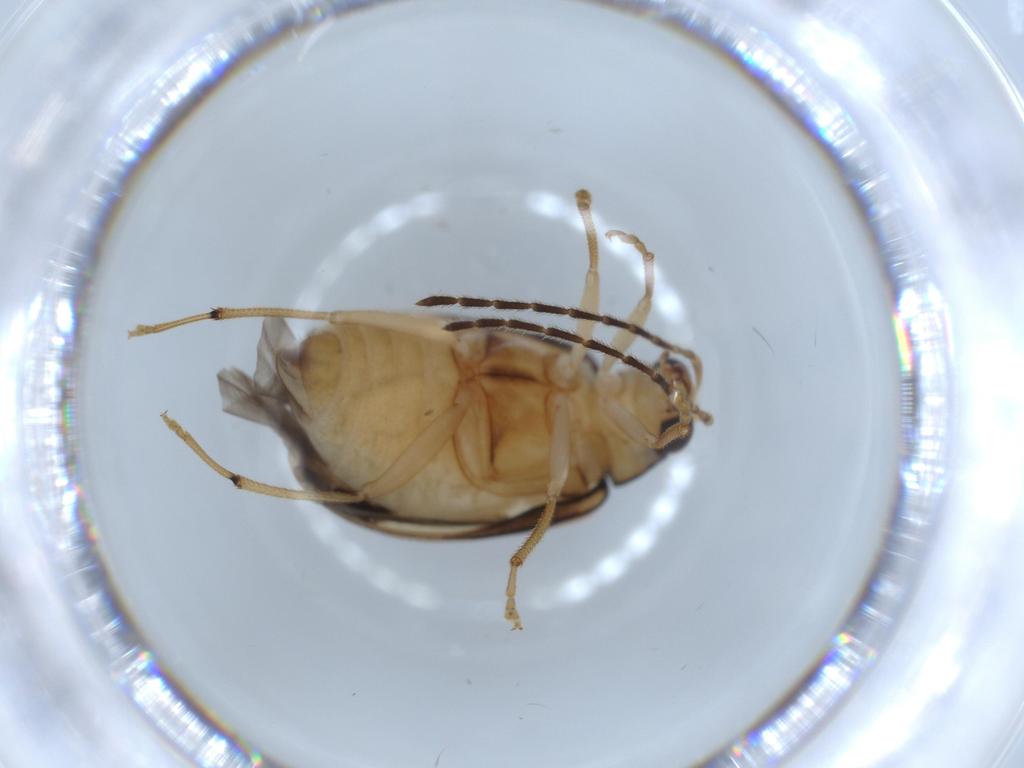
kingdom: Animalia
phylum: Arthropoda
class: Insecta
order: Coleoptera
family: Chrysomelidae
